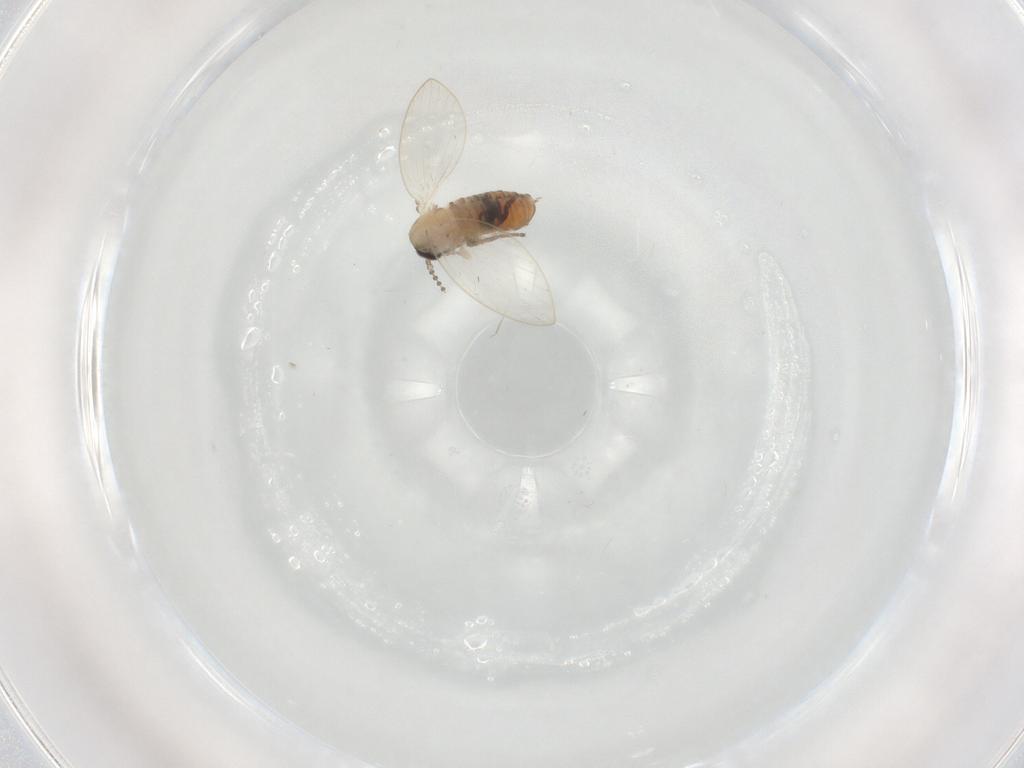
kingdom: Animalia
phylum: Arthropoda
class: Insecta
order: Diptera
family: Psychodidae
